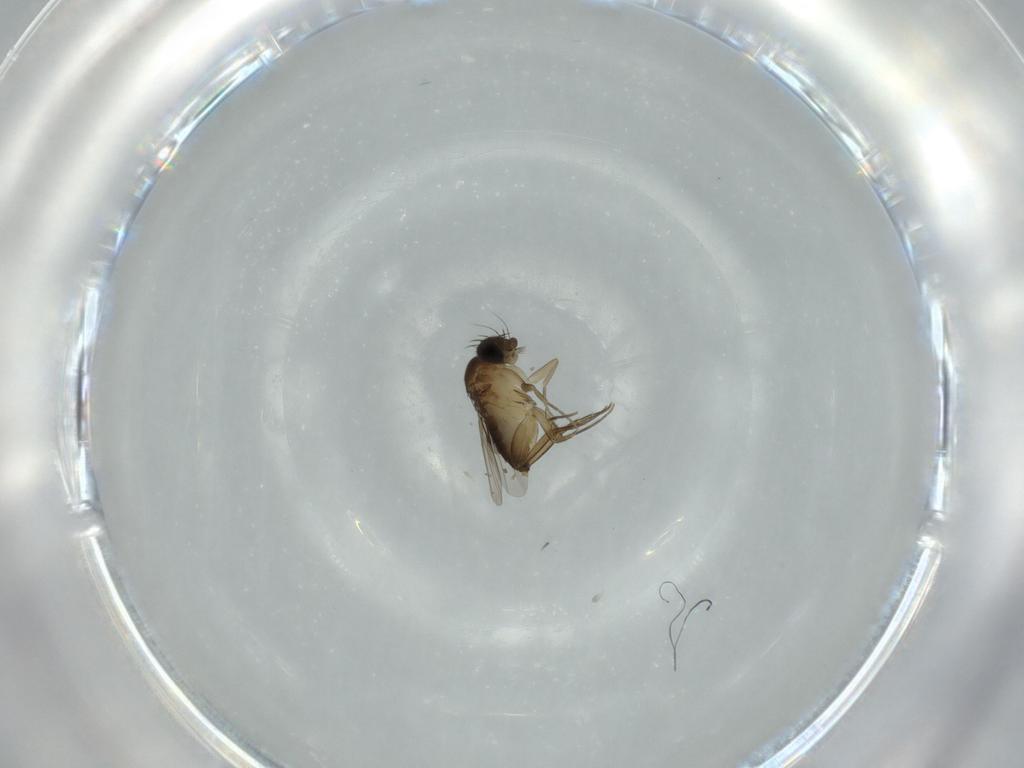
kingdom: Animalia
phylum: Arthropoda
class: Insecta
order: Diptera
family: Phoridae
